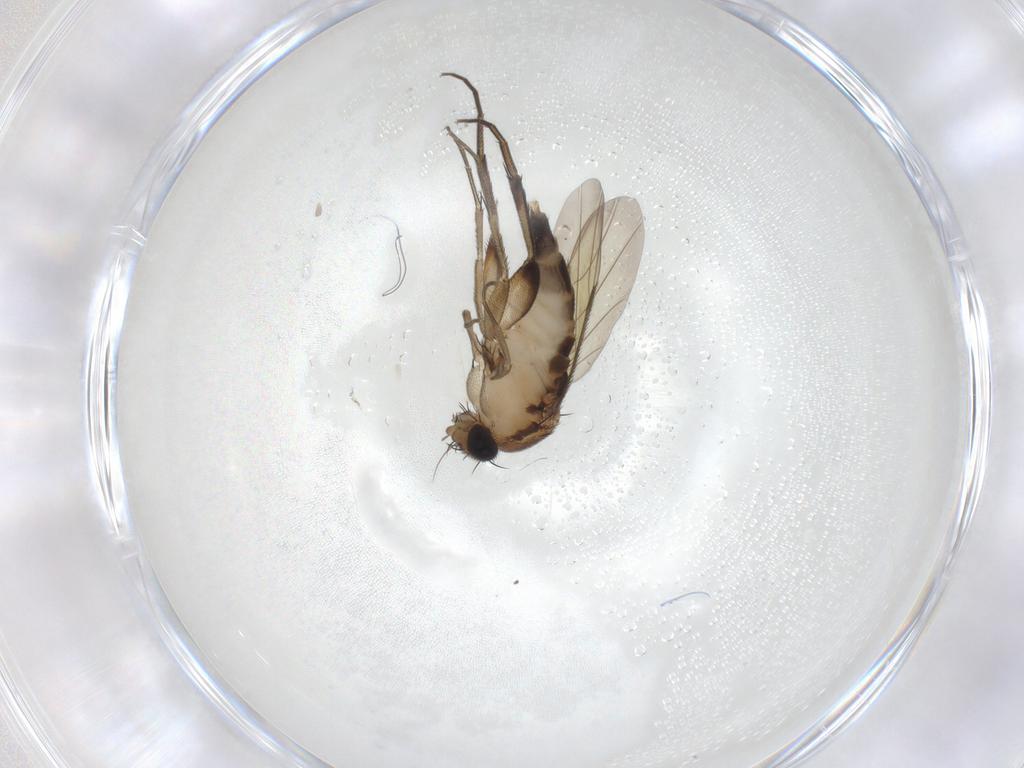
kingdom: Animalia
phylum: Arthropoda
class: Insecta
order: Diptera
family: Phoridae
